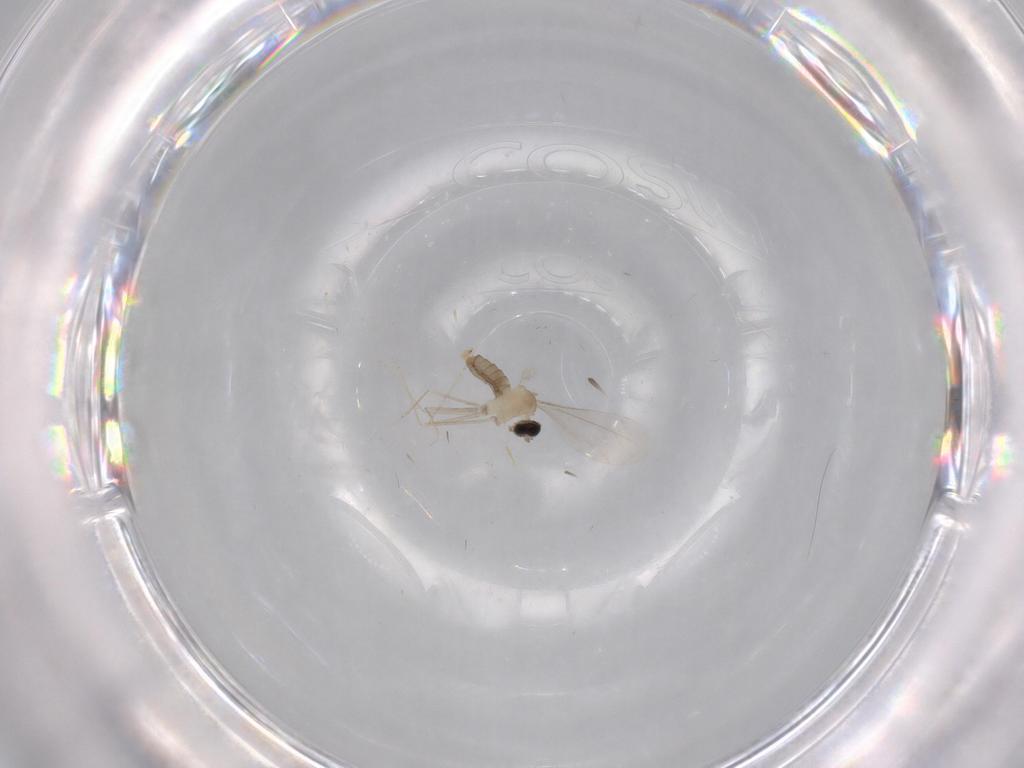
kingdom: Animalia
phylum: Arthropoda
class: Insecta
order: Diptera
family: Cecidomyiidae
